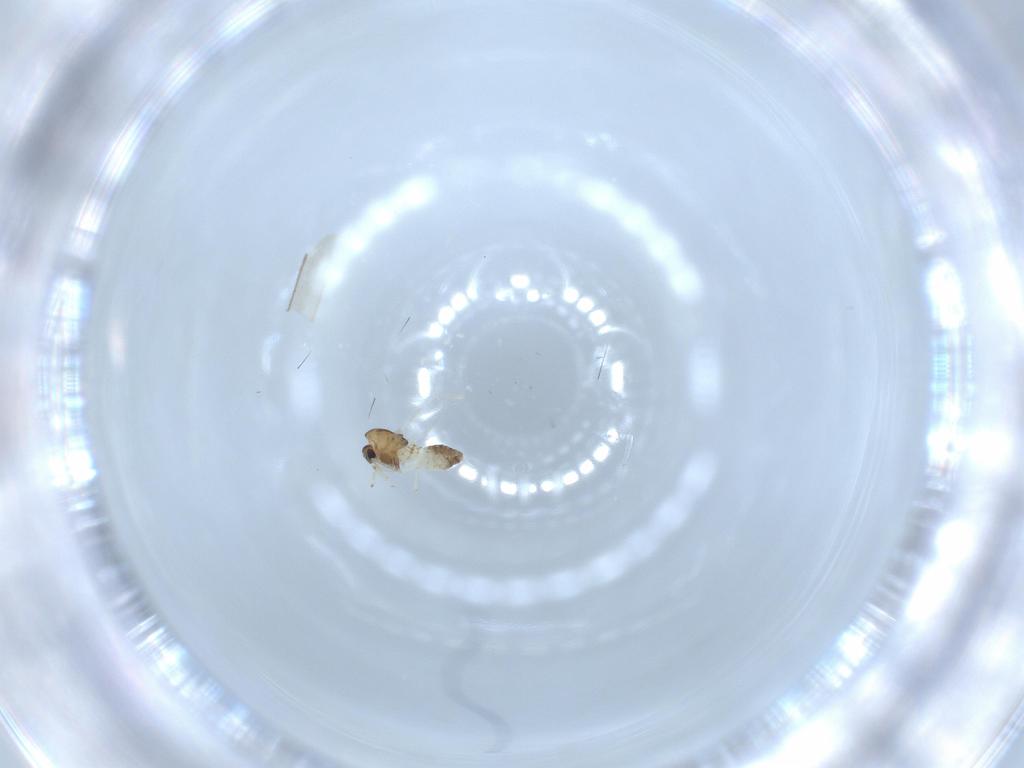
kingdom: Animalia
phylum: Arthropoda
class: Insecta
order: Diptera
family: Chironomidae
